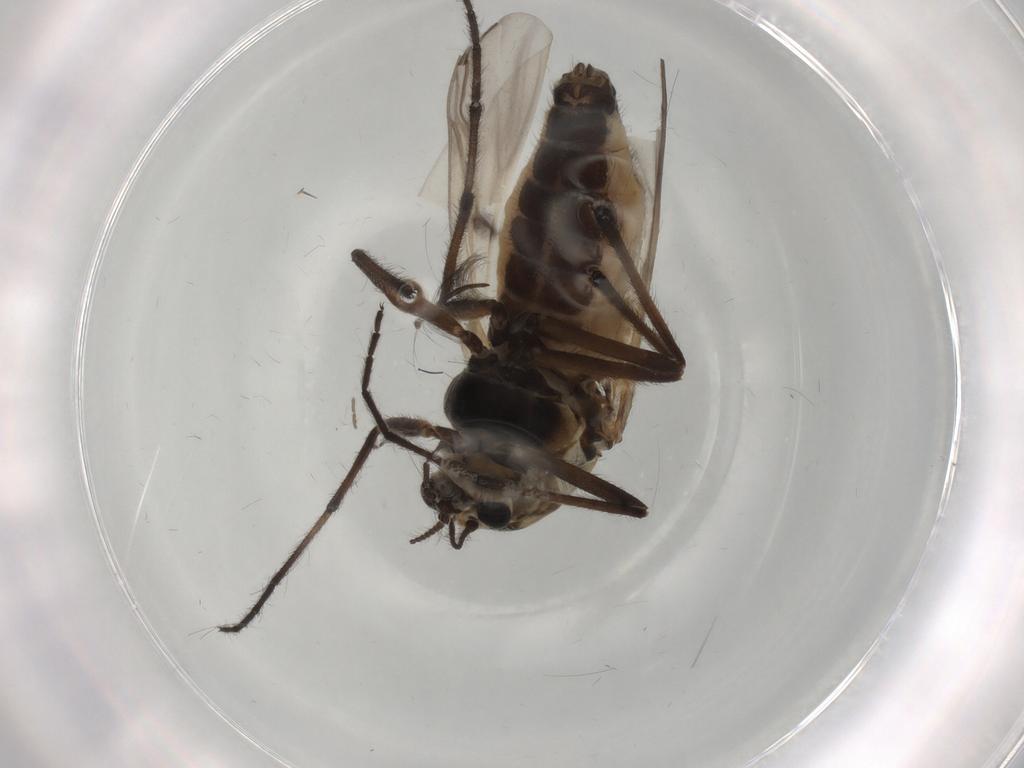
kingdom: Animalia
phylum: Arthropoda
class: Insecta
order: Diptera
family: Chironomidae
